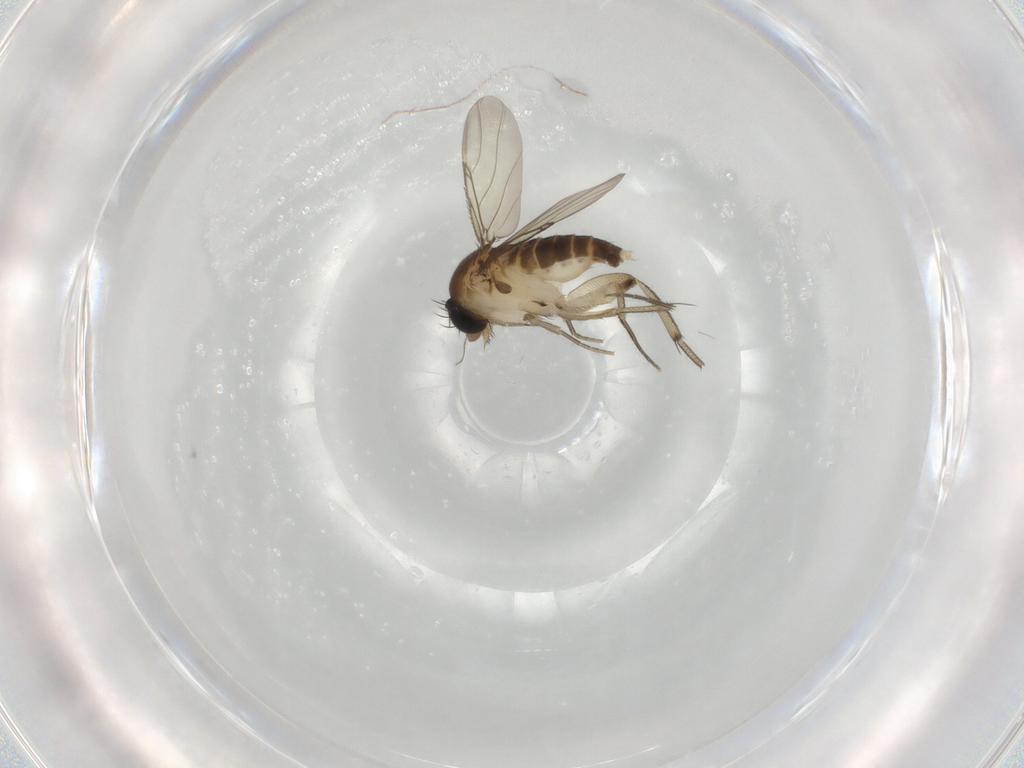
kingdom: Animalia
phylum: Arthropoda
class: Insecta
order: Diptera
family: Phoridae
